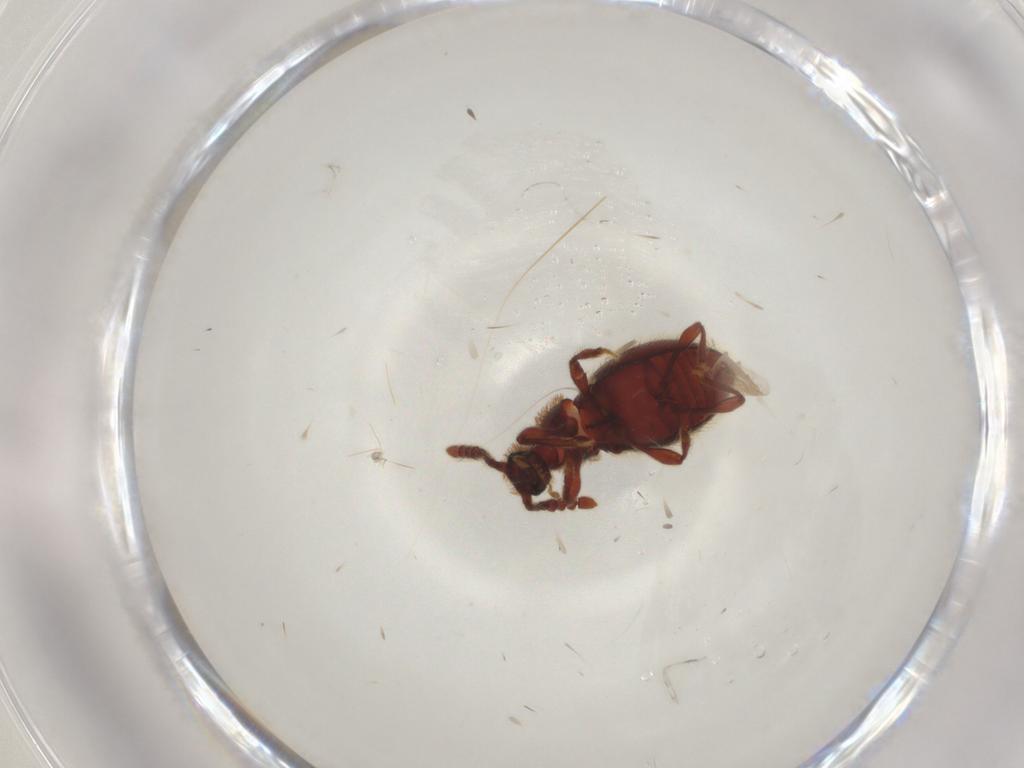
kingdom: Animalia
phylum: Arthropoda
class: Insecta
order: Coleoptera
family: Staphylinidae
